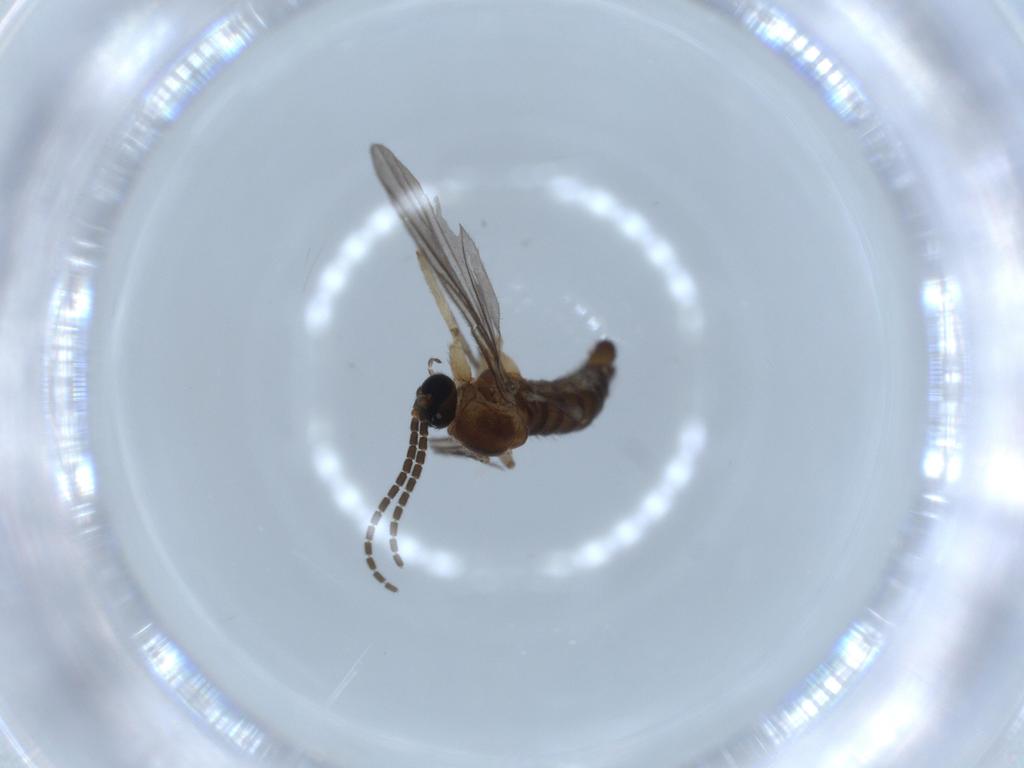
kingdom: Animalia
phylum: Arthropoda
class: Insecta
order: Diptera
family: Sciaridae
